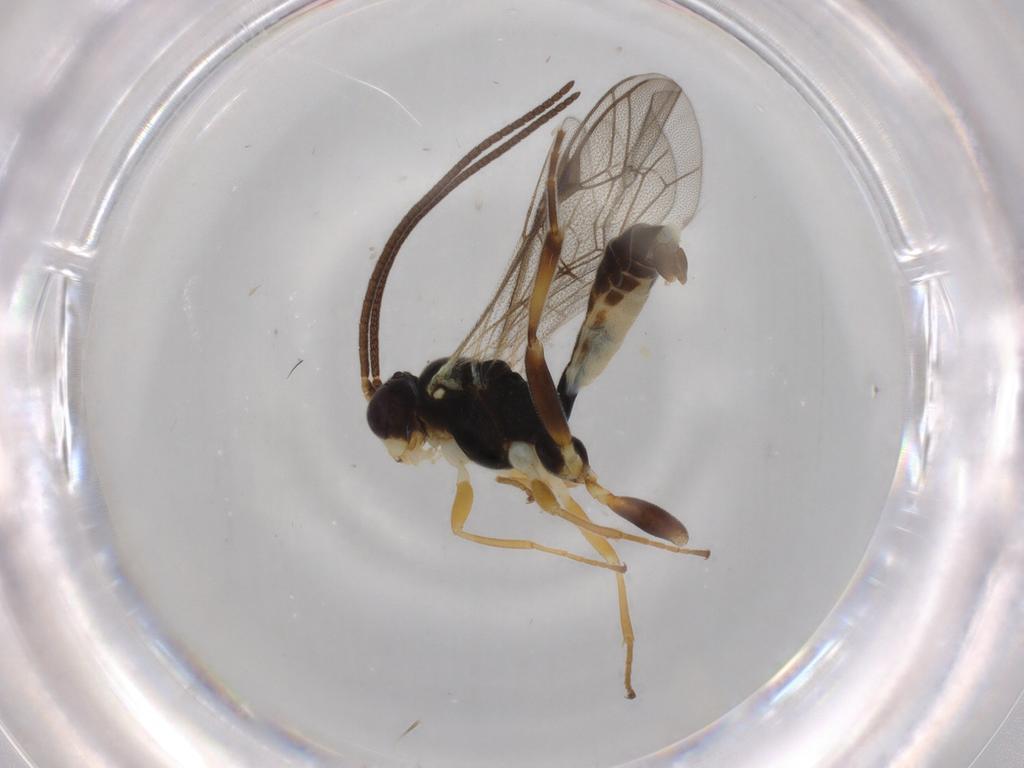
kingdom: Animalia
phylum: Arthropoda
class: Insecta
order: Hymenoptera
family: Ichneumonidae
